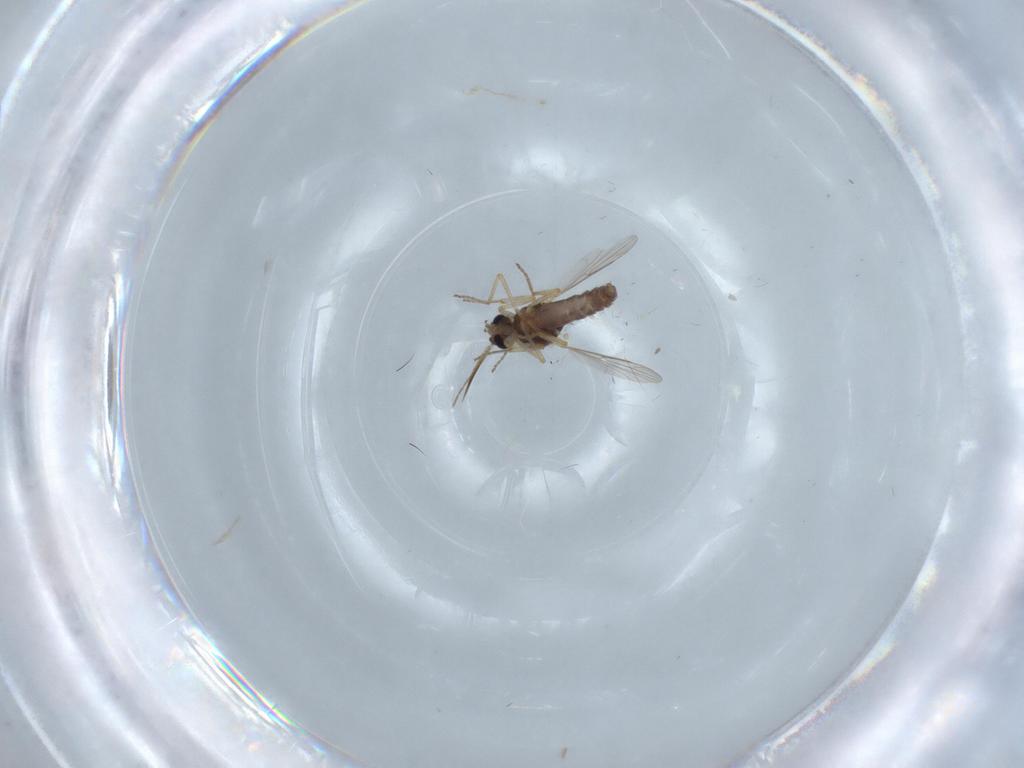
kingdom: Animalia
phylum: Arthropoda
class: Insecta
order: Diptera
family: Ceratopogonidae
